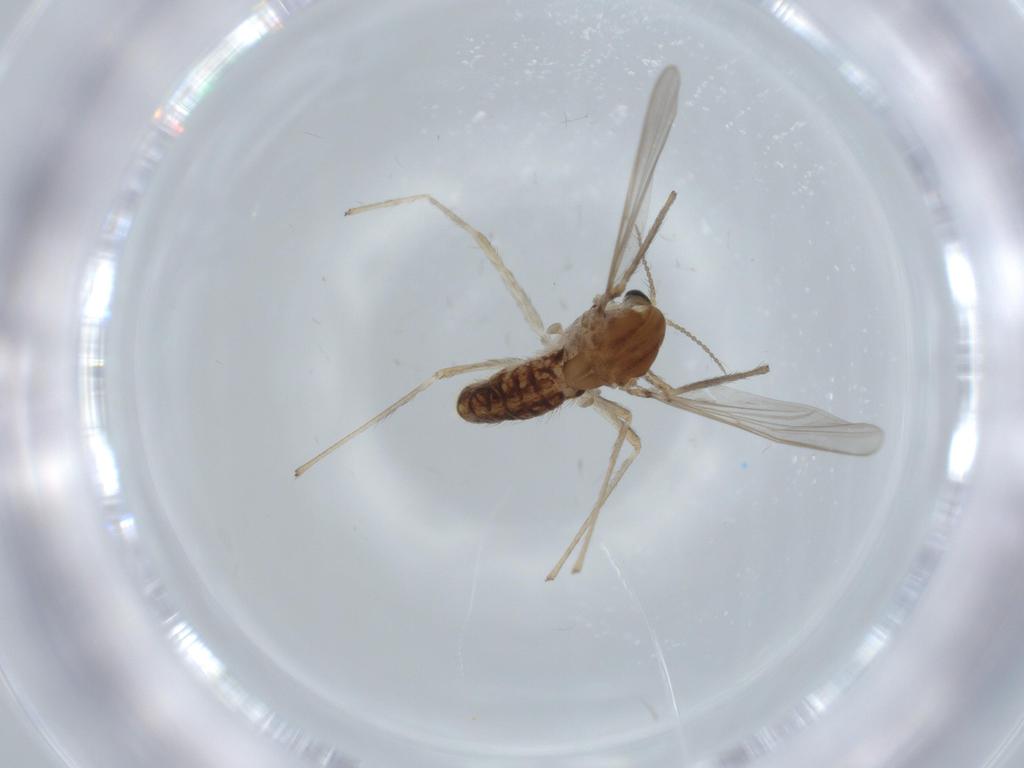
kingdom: Animalia
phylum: Arthropoda
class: Insecta
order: Diptera
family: Chironomidae
